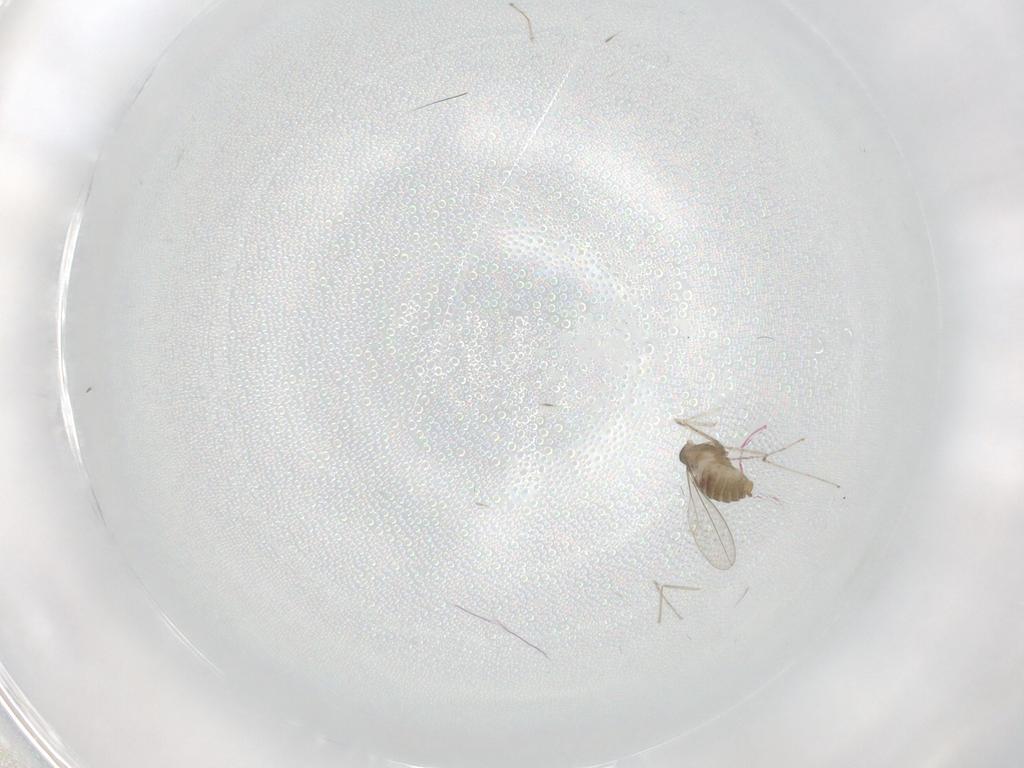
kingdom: Animalia
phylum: Arthropoda
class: Insecta
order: Diptera
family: Cecidomyiidae
